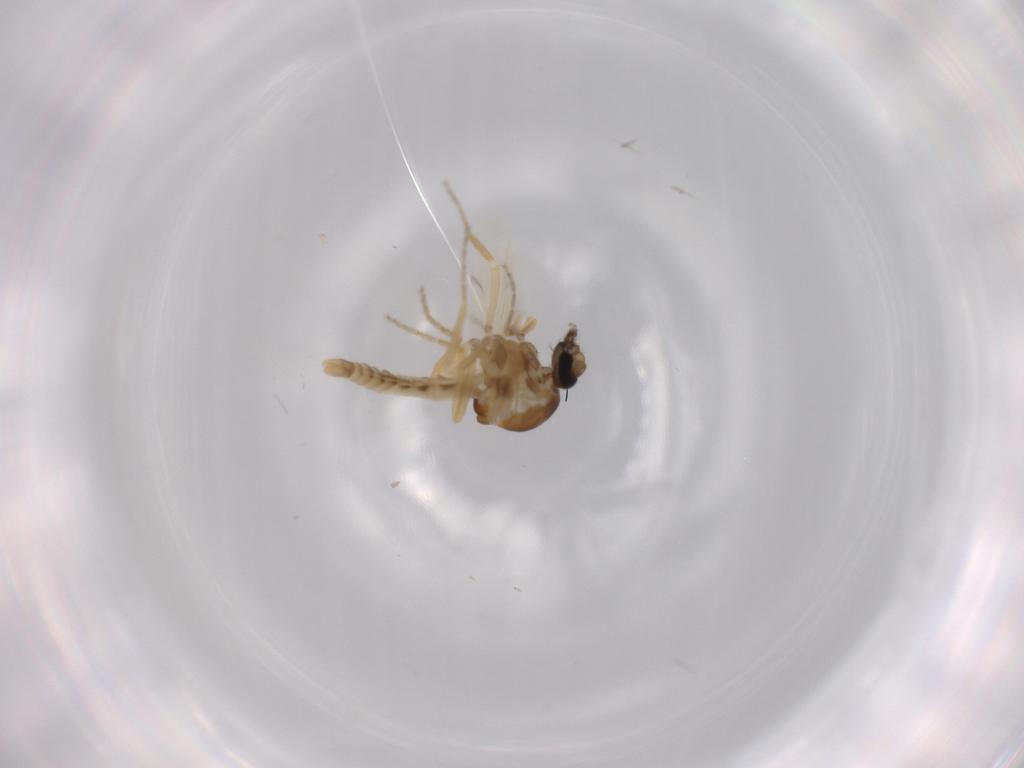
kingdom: Animalia
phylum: Arthropoda
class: Insecta
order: Diptera
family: Ceratopogonidae
